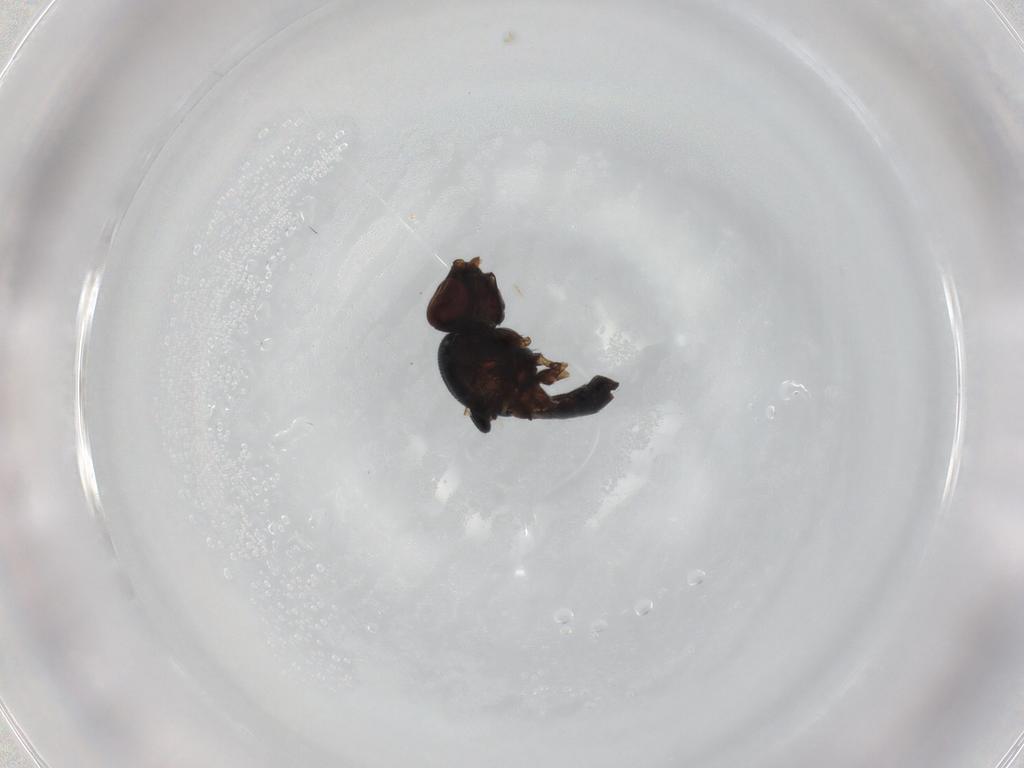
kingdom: Animalia
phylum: Arthropoda
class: Insecta
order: Diptera
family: Chloropidae
